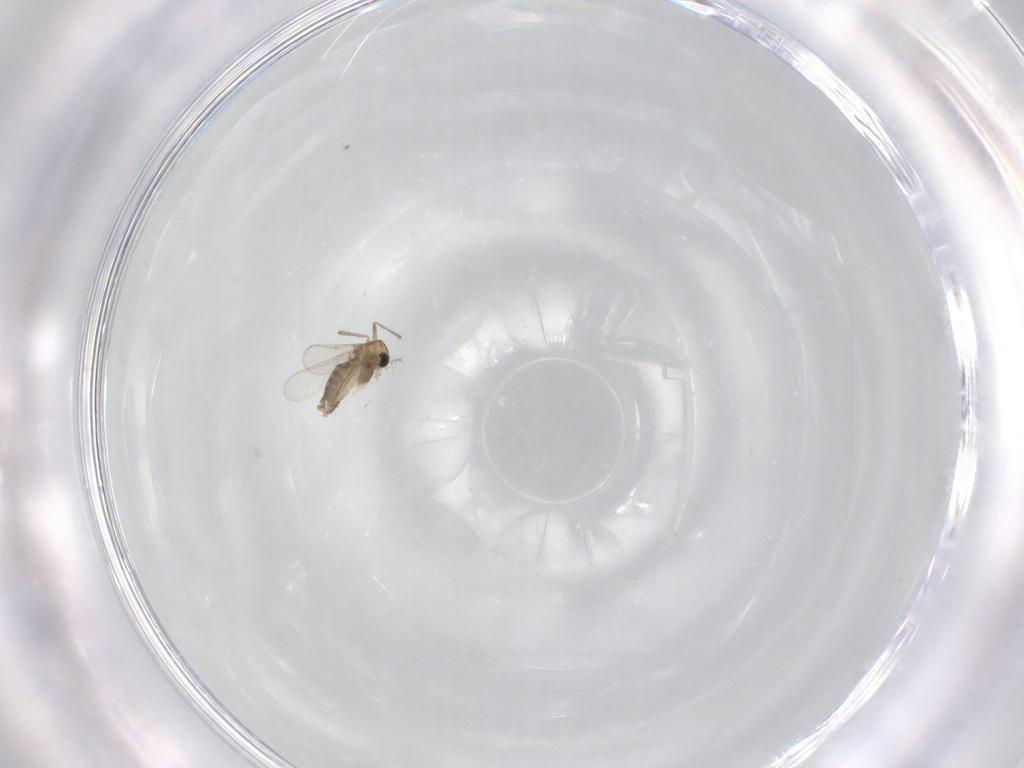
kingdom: Animalia
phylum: Arthropoda
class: Insecta
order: Diptera
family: Sciaridae
